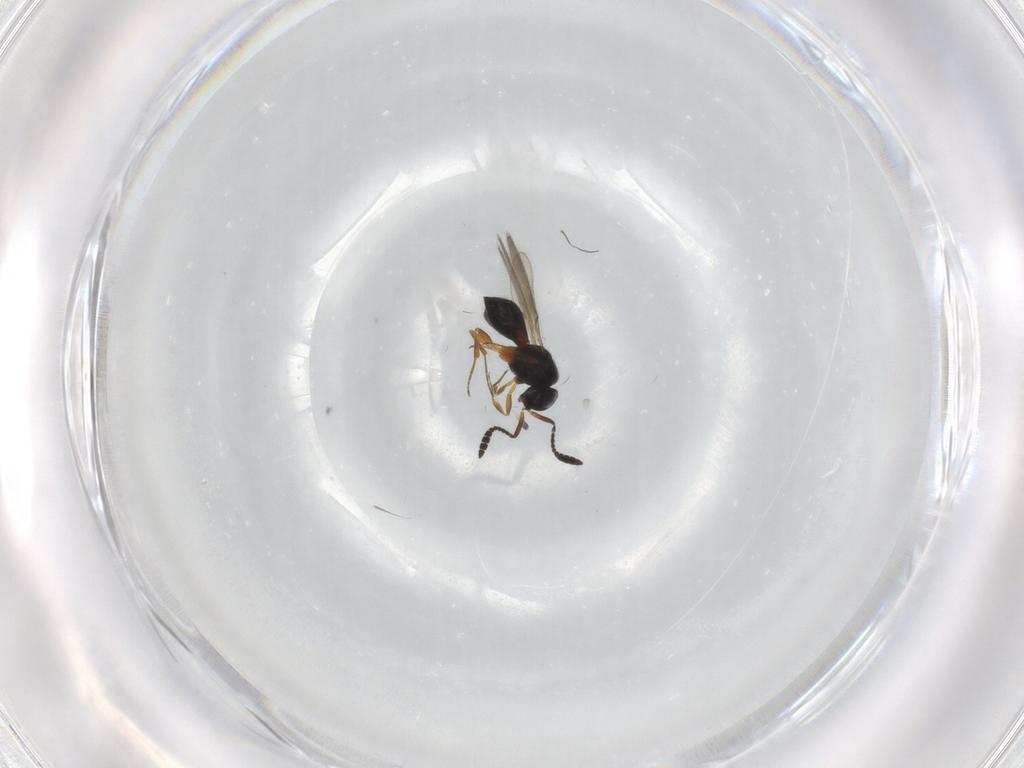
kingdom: Animalia
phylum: Arthropoda
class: Insecta
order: Hymenoptera
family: Scelionidae
